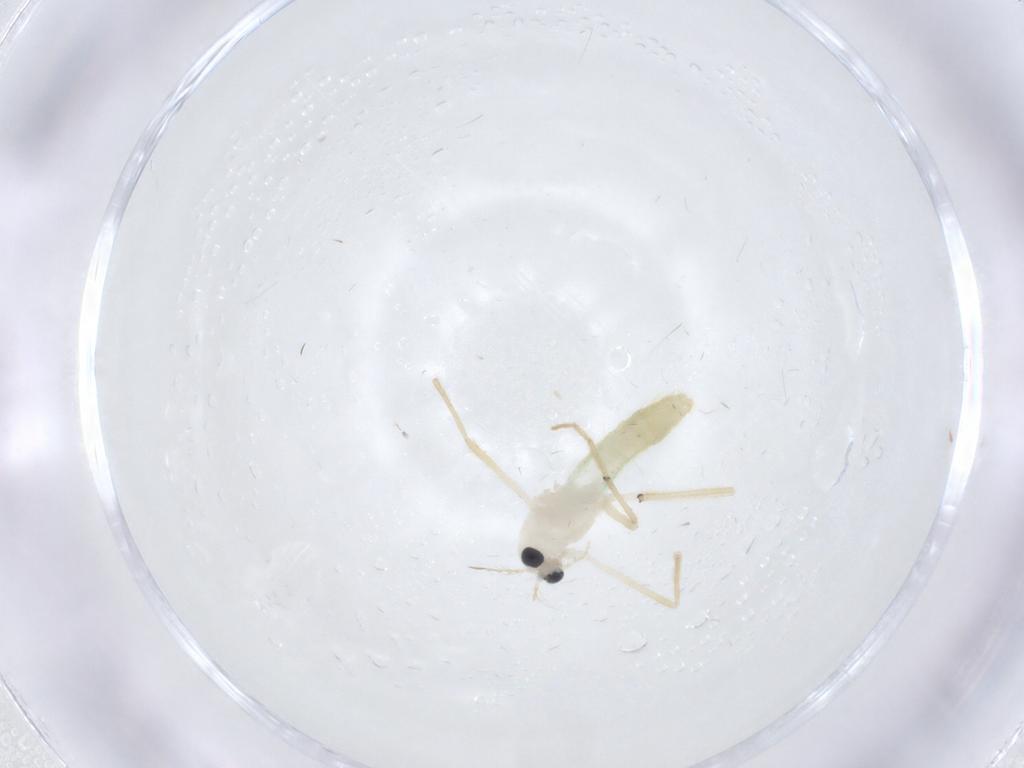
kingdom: Animalia
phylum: Arthropoda
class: Insecta
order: Diptera
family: Chironomidae
